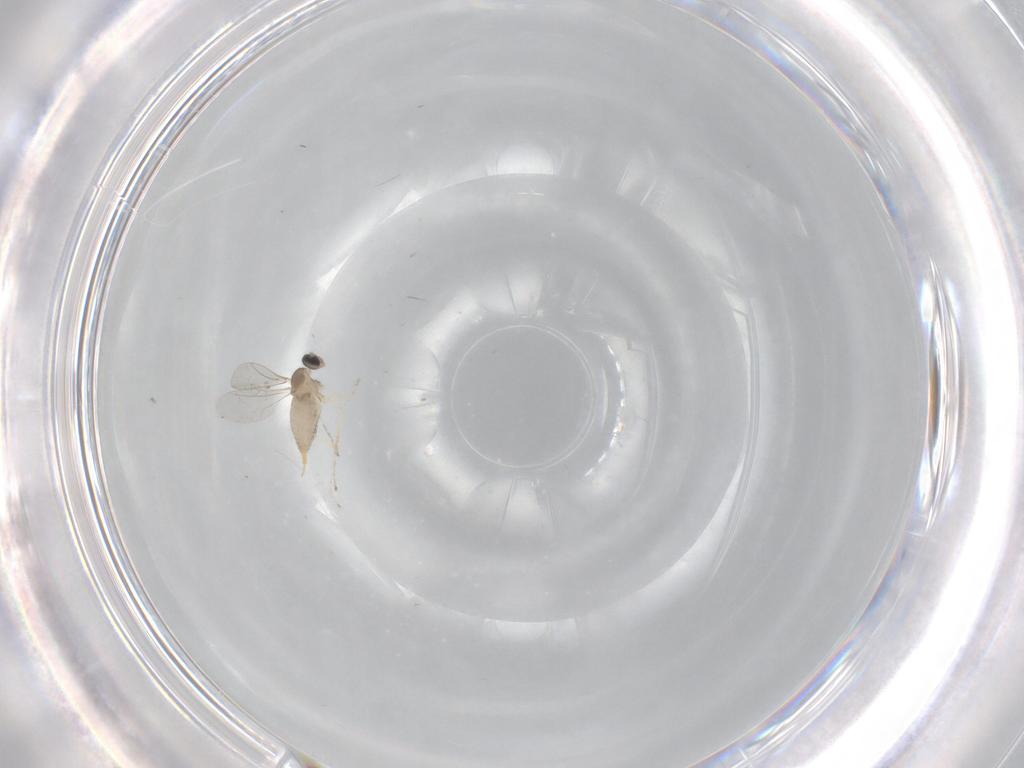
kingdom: Animalia
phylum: Arthropoda
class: Insecta
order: Diptera
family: Cecidomyiidae
